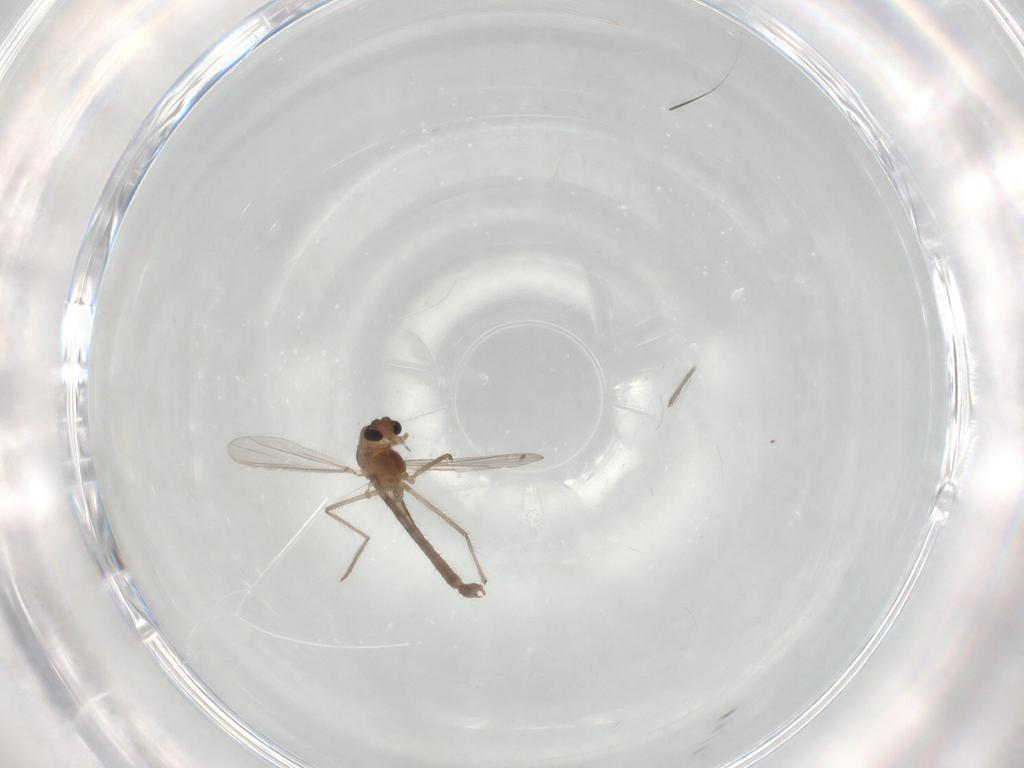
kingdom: Animalia
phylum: Arthropoda
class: Insecta
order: Diptera
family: Chironomidae
